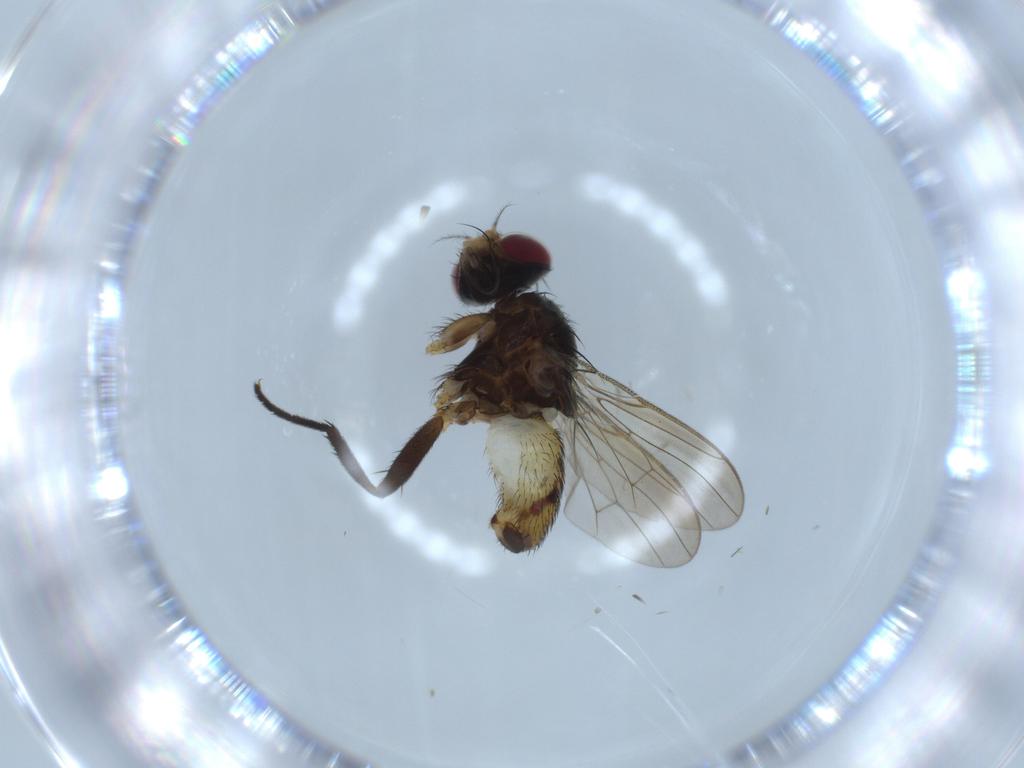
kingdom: Animalia
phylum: Arthropoda
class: Insecta
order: Diptera
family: Anthomyiidae
